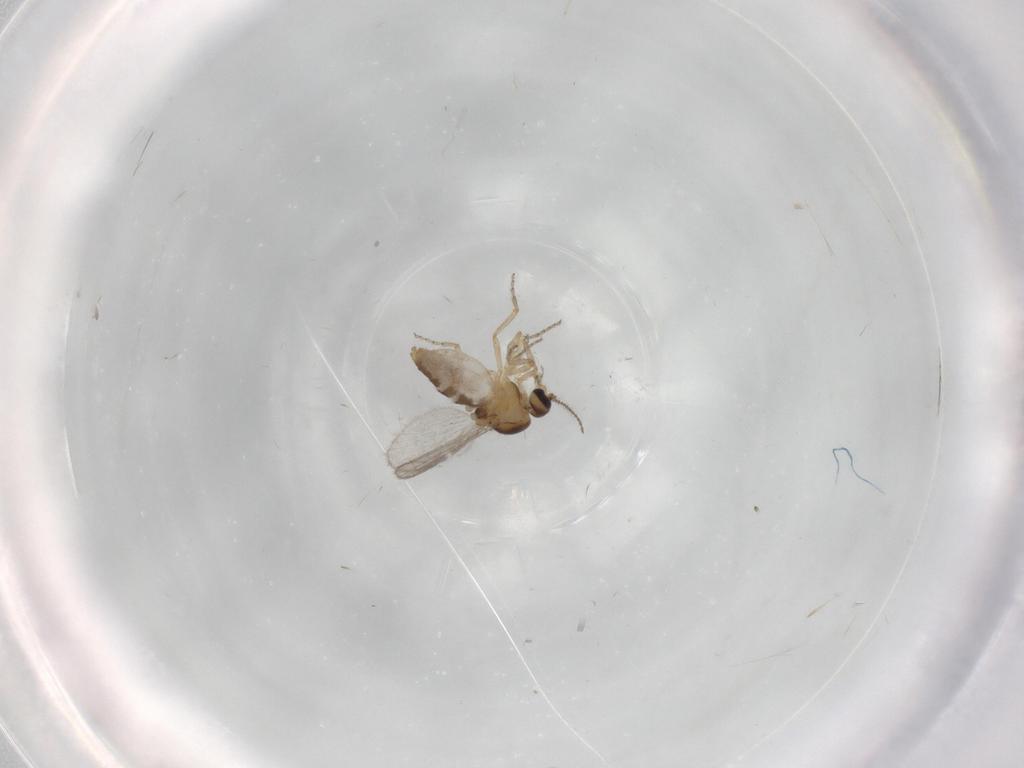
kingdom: Animalia
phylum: Arthropoda
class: Insecta
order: Diptera
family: Ceratopogonidae
